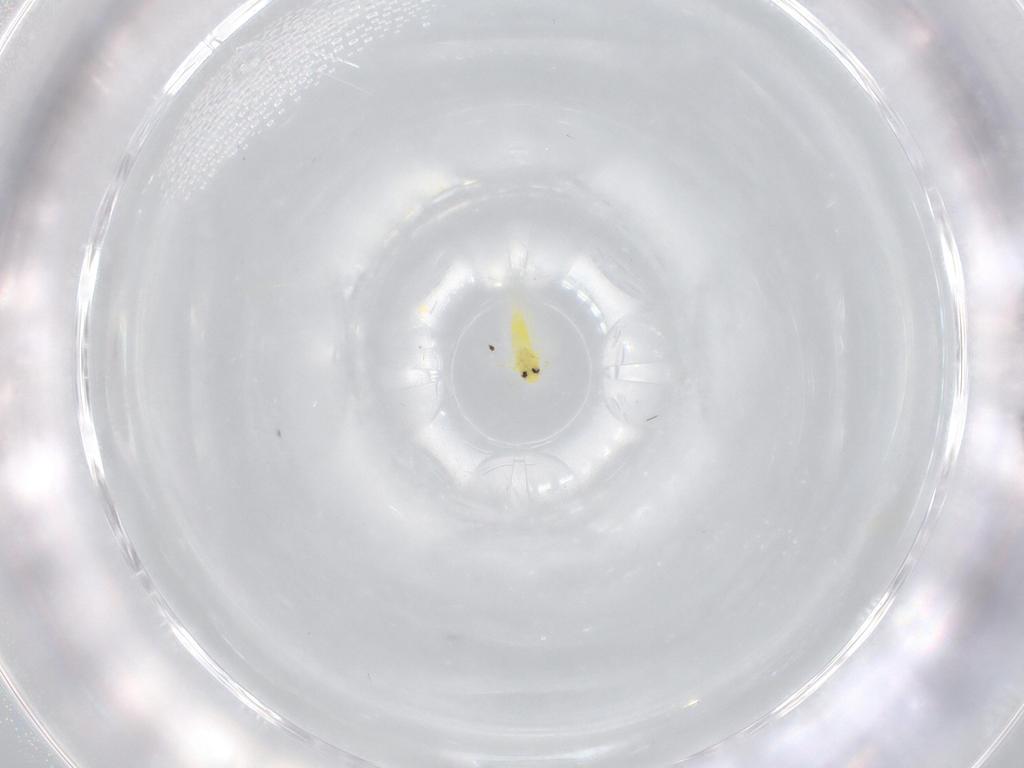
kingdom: Animalia
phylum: Arthropoda
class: Insecta
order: Hemiptera
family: Aleyrodidae
